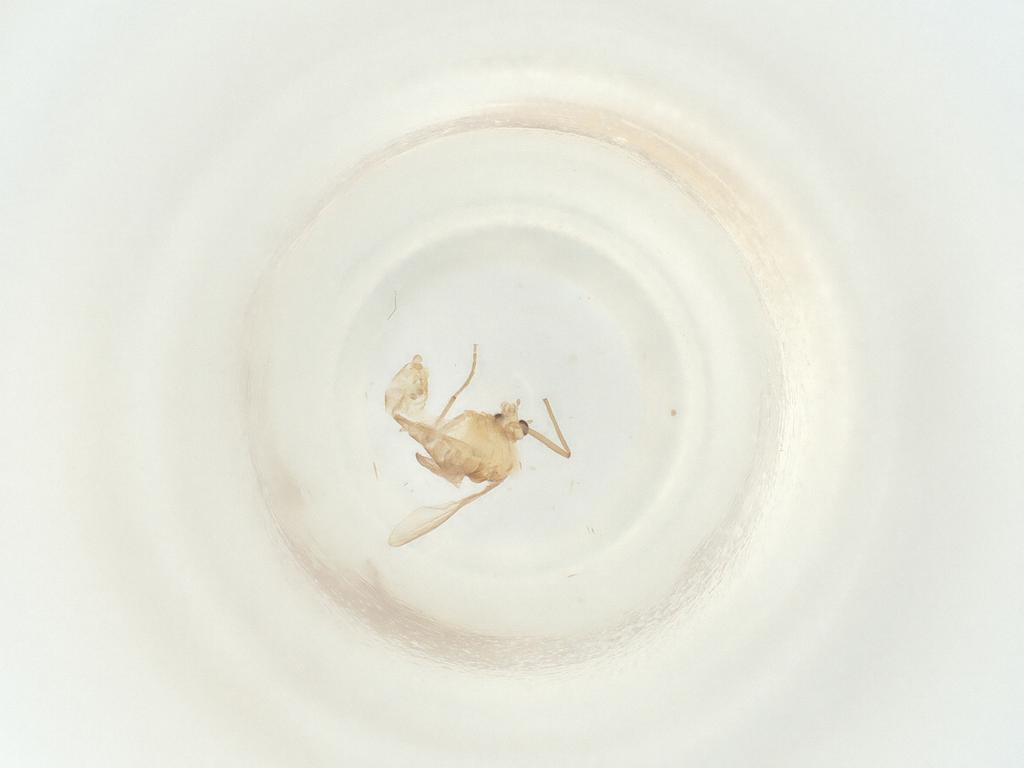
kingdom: Animalia
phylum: Arthropoda
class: Insecta
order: Diptera
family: Chironomidae
